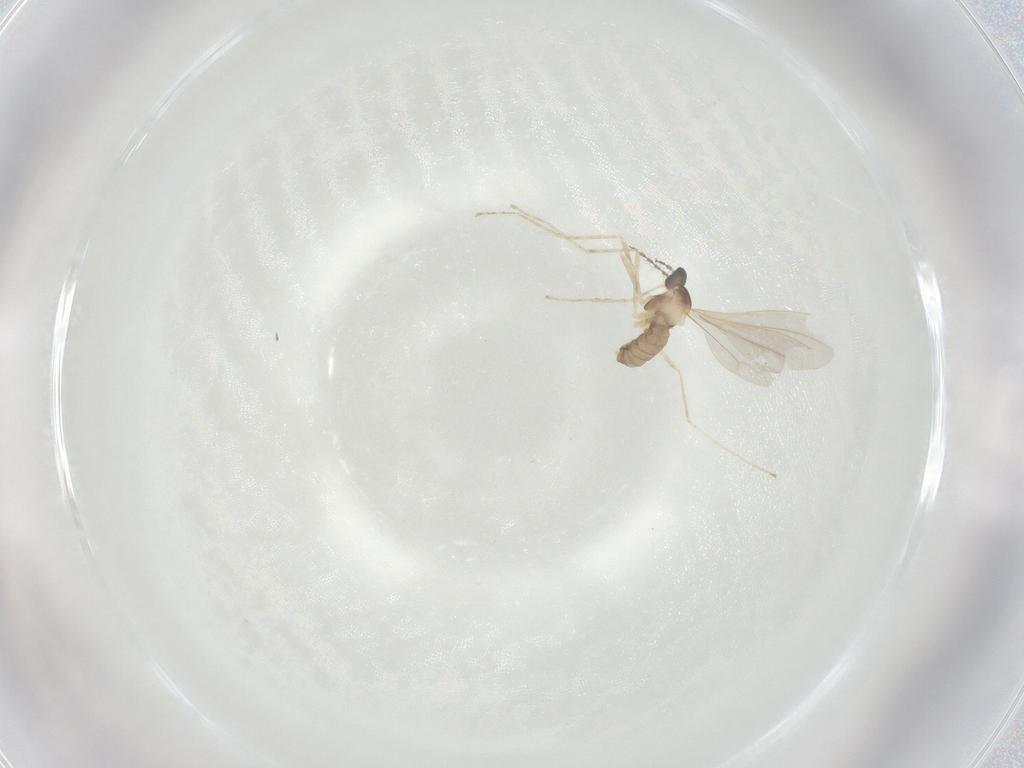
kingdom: Animalia
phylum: Arthropoda
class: Insecta
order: Diptera
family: Cecidomyiidae
